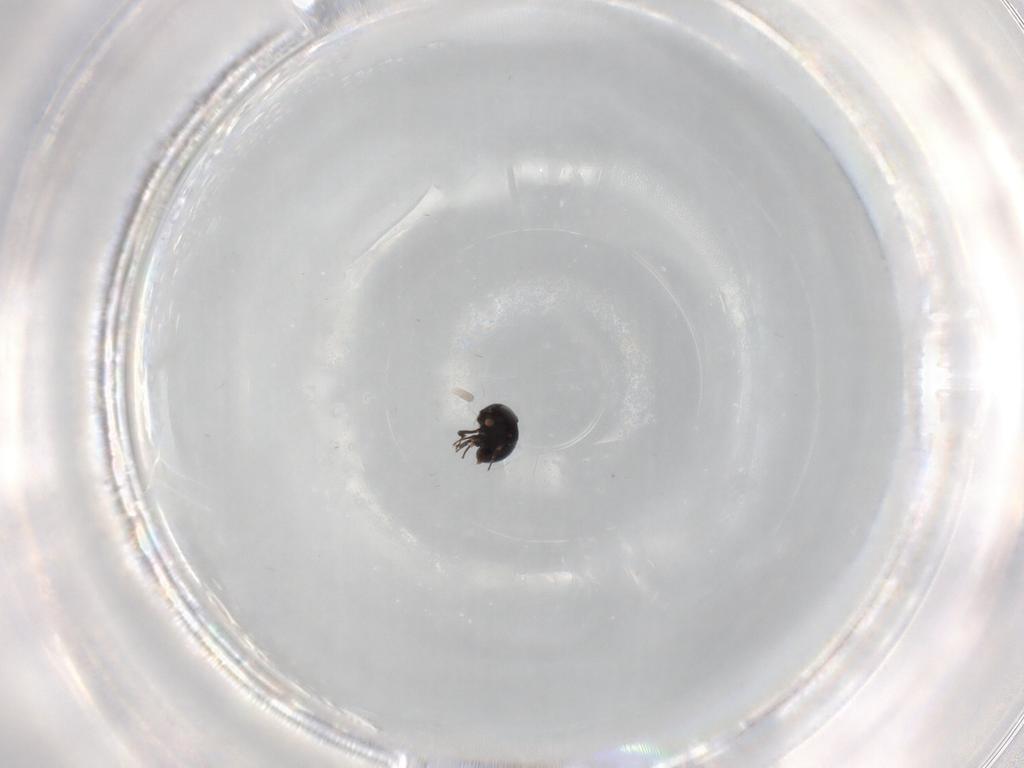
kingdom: Animalia
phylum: Arthropoda
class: Insecta
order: Hymenoptera
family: Scelionidae
